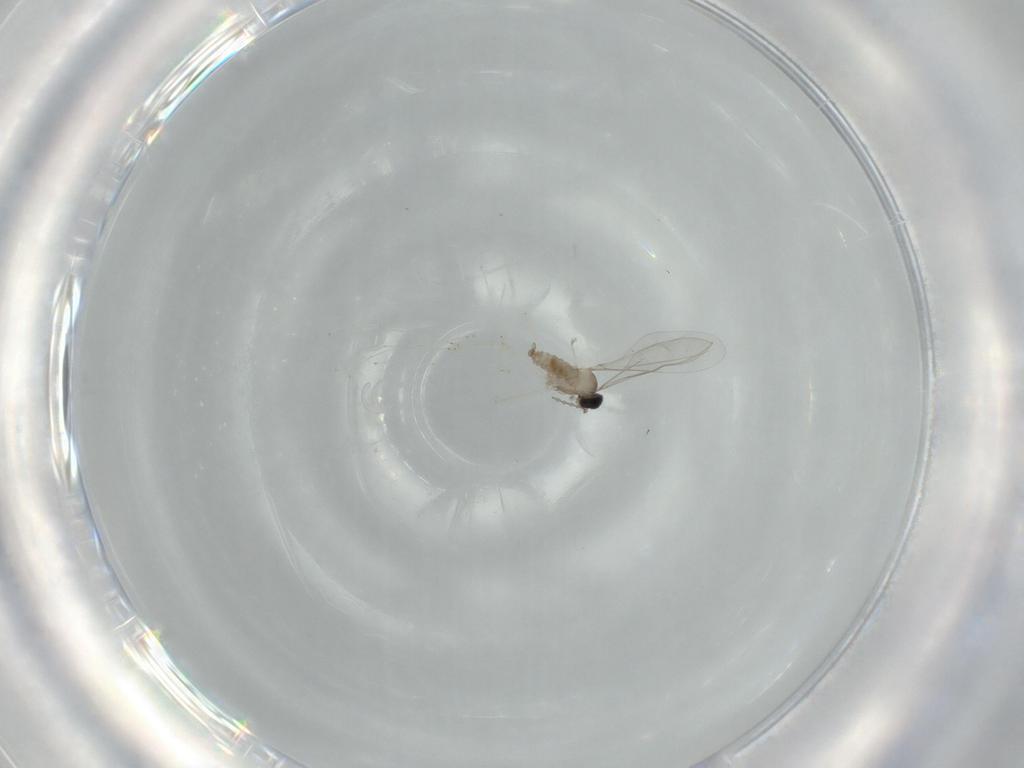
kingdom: Animalia
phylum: Arthropoda
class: Insecta
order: Diptera
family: Cecidomyiidae
